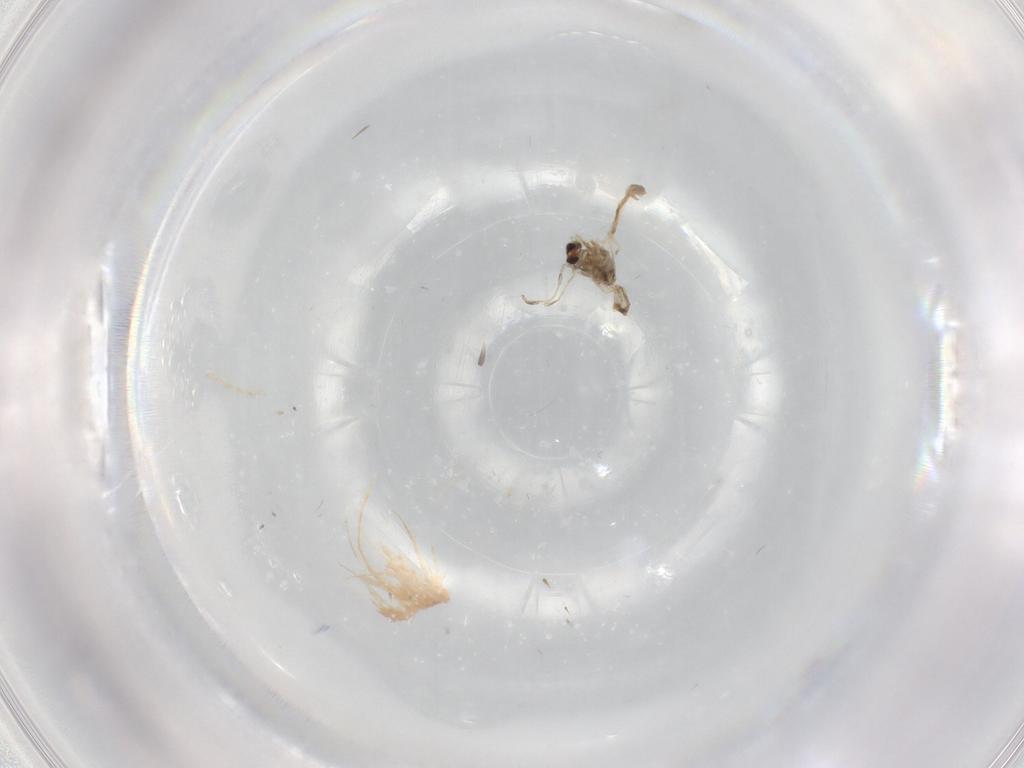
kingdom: Animalia
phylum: Arthropoda
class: Insecta
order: Diptera
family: Cecidomyiidae
